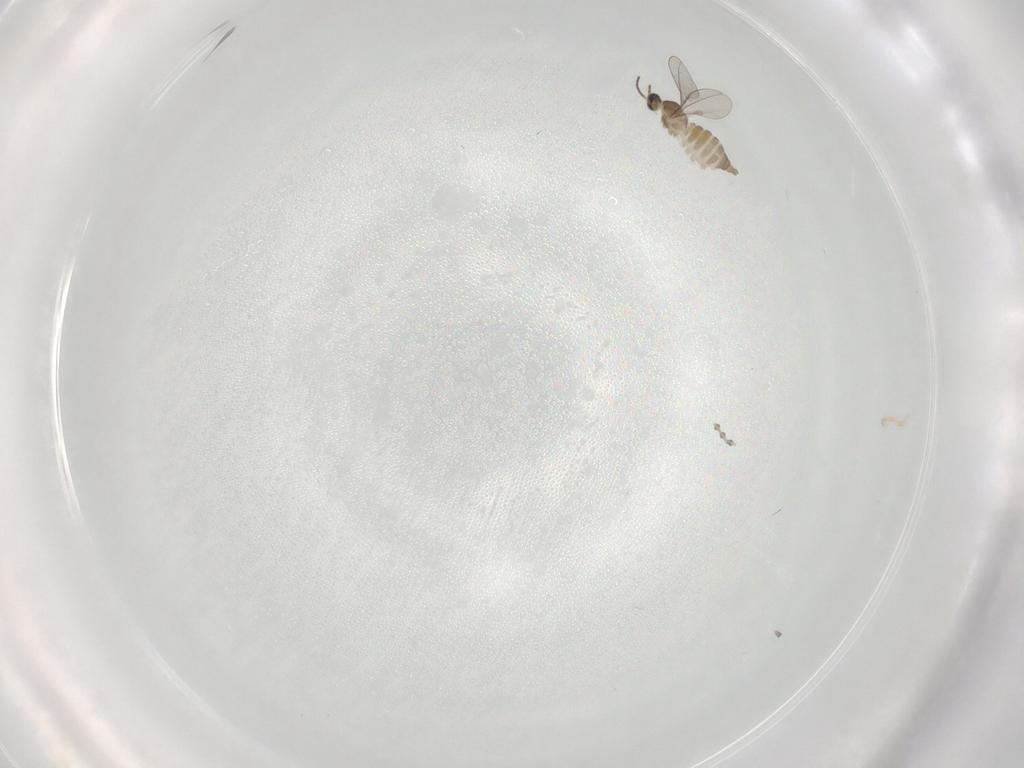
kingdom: Animalia
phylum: Arthropoda
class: Insecta
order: Diptera
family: Cecidomyiidae
